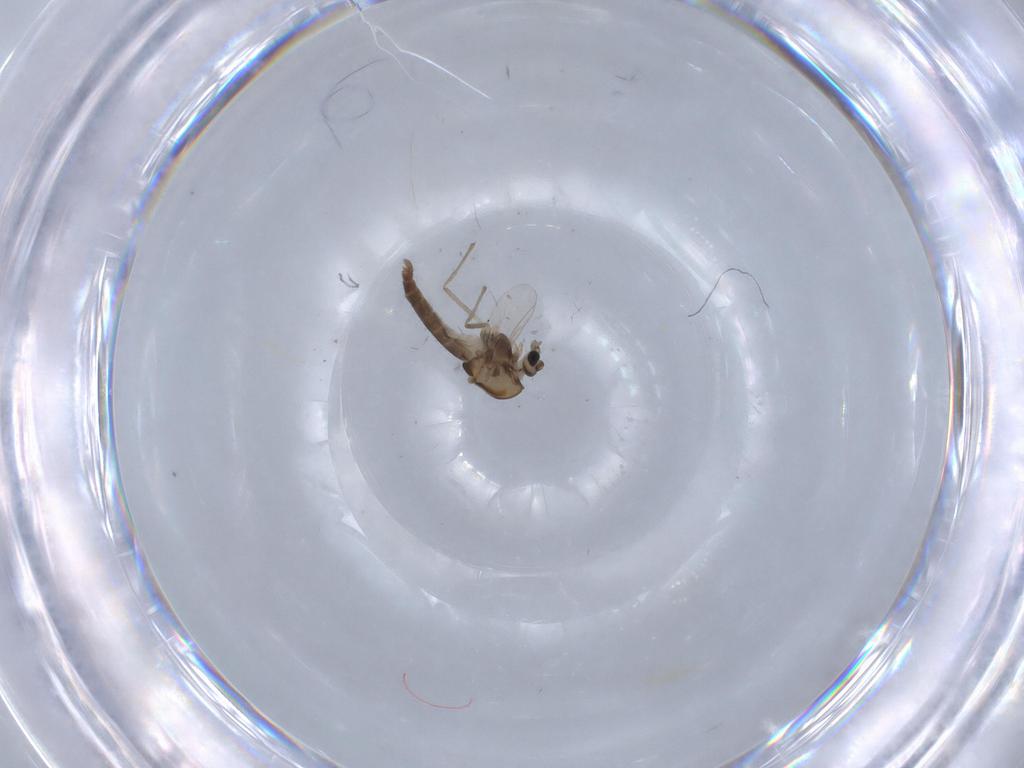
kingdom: Animalia
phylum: Arthropoda
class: Insecta
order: Diptera
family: Chironomidae
